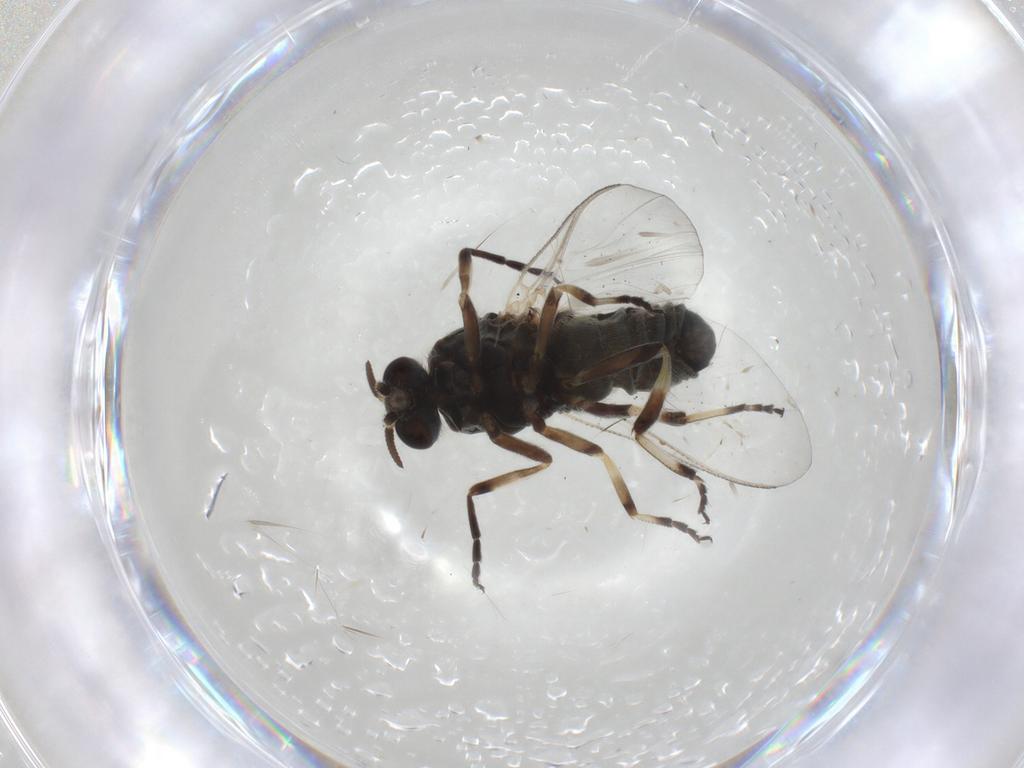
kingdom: Animalia
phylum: Arthropoda
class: Insecta
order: Diptera
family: Simuliidae
